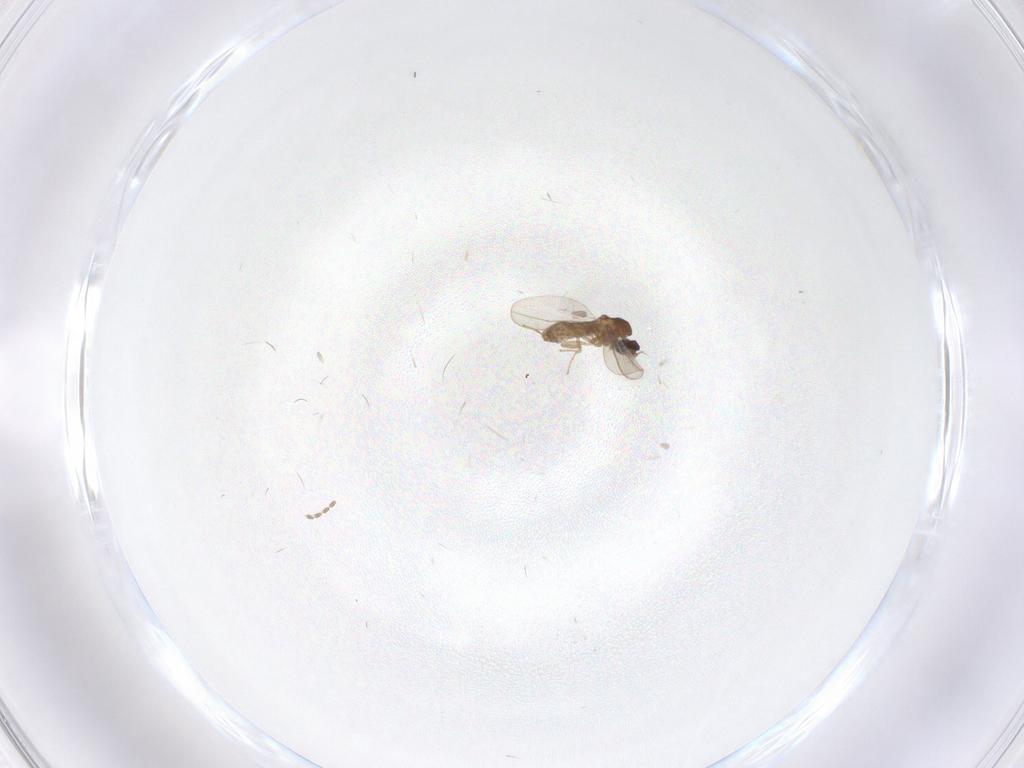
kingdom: Animalia
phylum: Arthropoda
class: Insecta
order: Diptera
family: Cecidomyiidae
